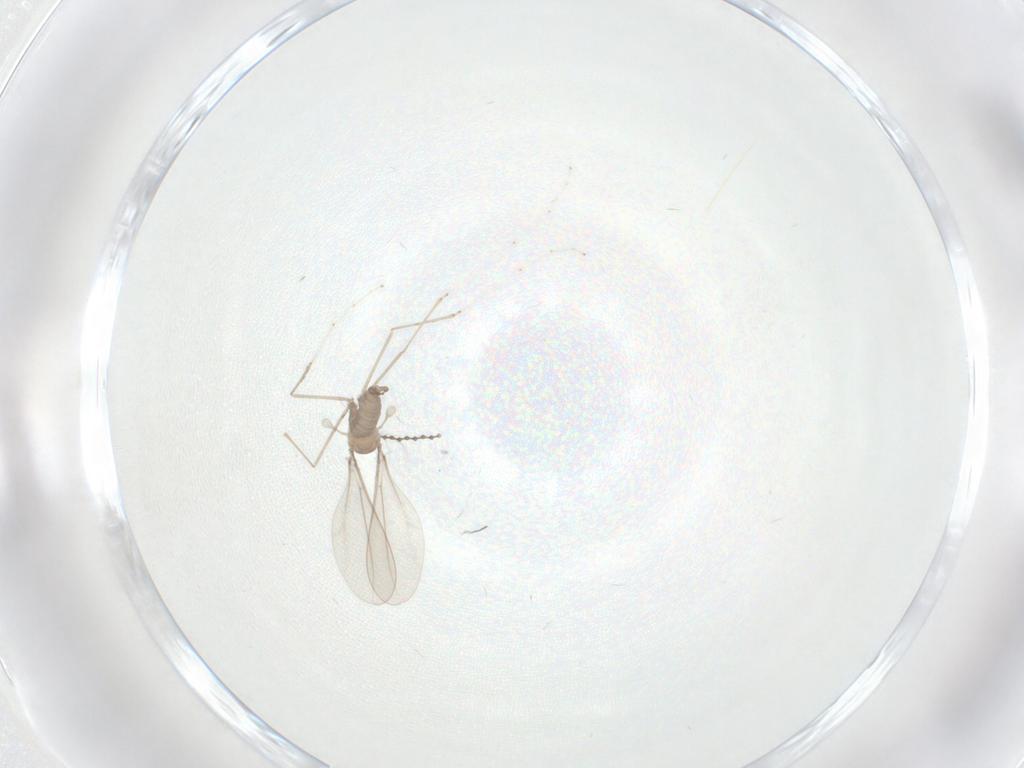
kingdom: Animalia
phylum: Arthropoda
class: Insecta
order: Diptera
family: Cecidomyiidae
